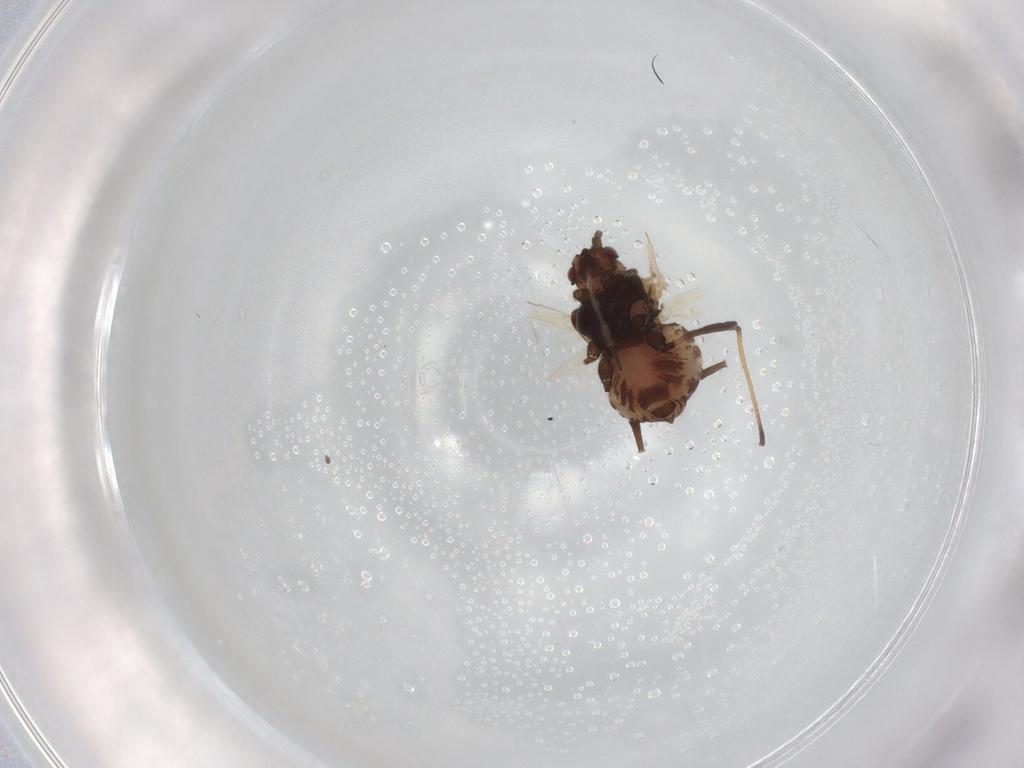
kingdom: Animalia
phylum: Arthropoda
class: Insecta
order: Hemiptera
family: Aphididae
